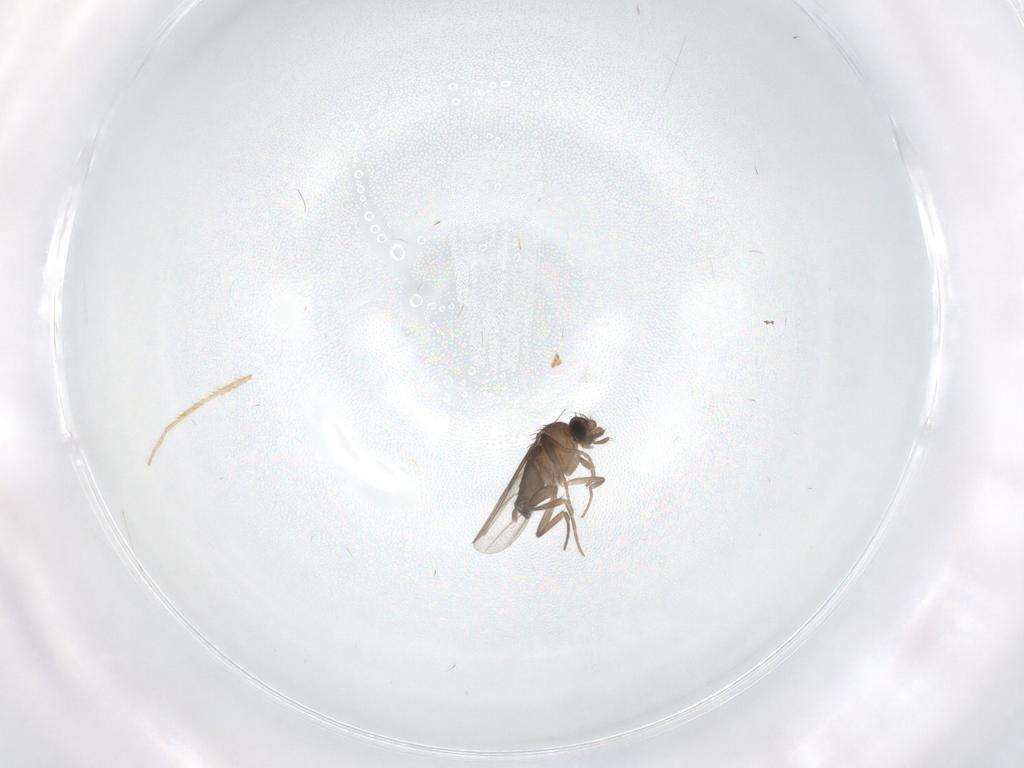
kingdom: Animalia
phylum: Arthropoda
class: Insecta
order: Diptera
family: Chironomidae
